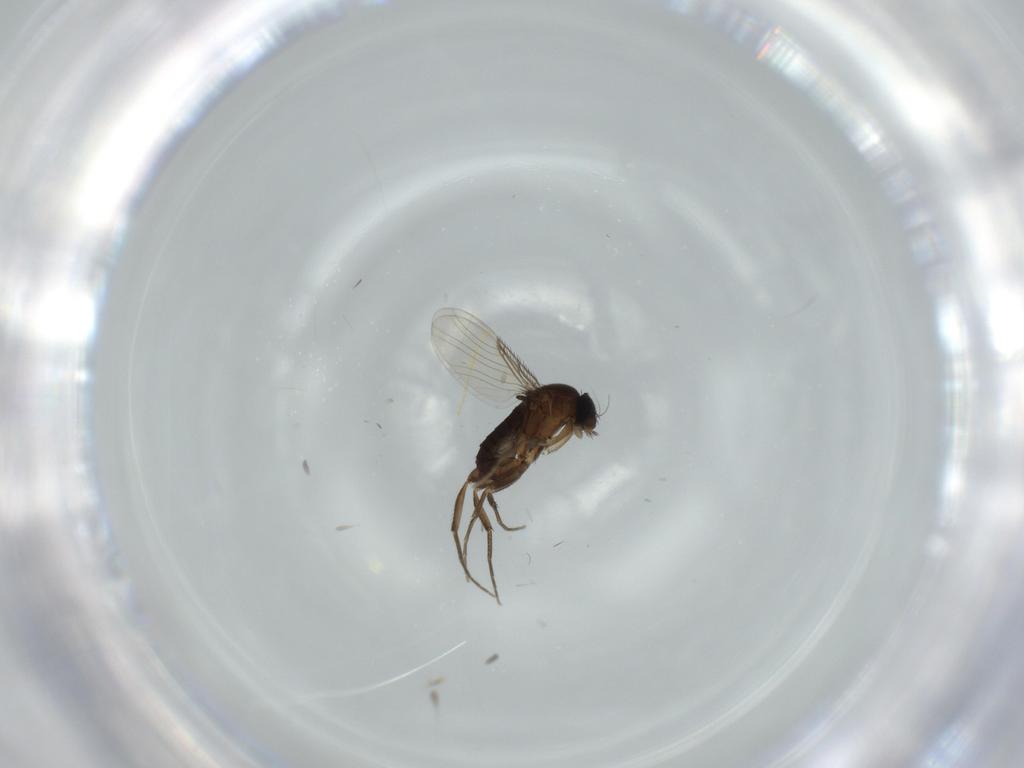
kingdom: Animalia
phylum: Arthropoda
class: Insecta
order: Diptera
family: Phoridae
